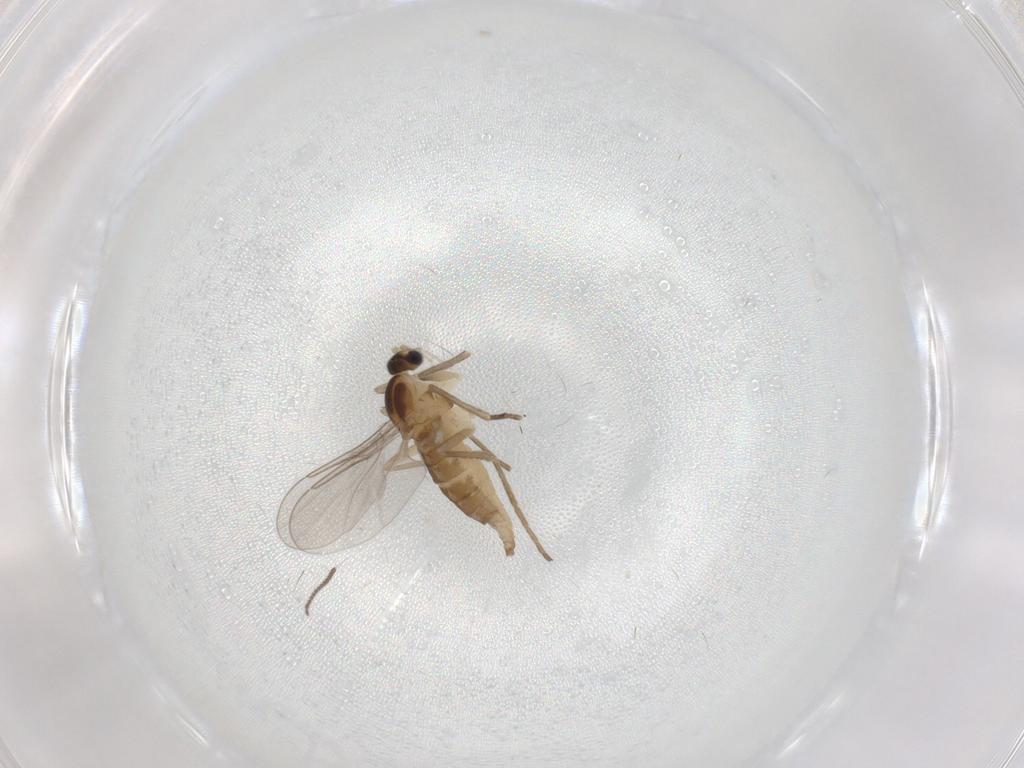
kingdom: Animalia
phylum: Arthropoda
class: Insecta
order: Diptera
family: Cecidomyiidae
